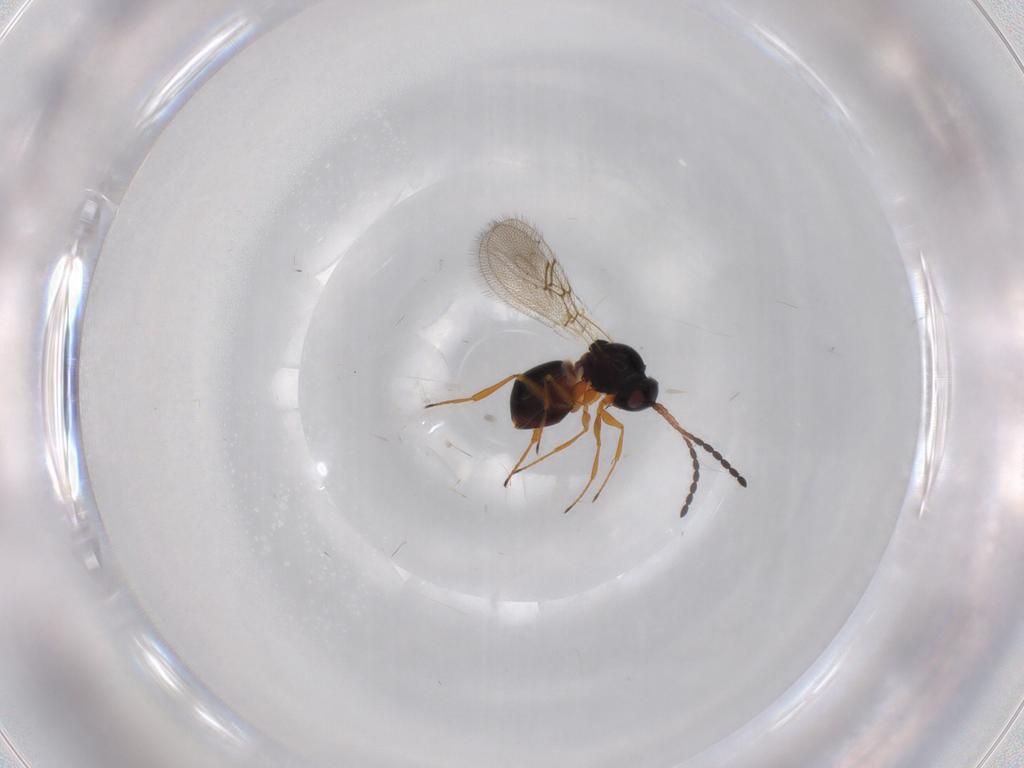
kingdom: Animalia
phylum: Arthropoda
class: Insecta
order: Hymenoptera
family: Figitidae
